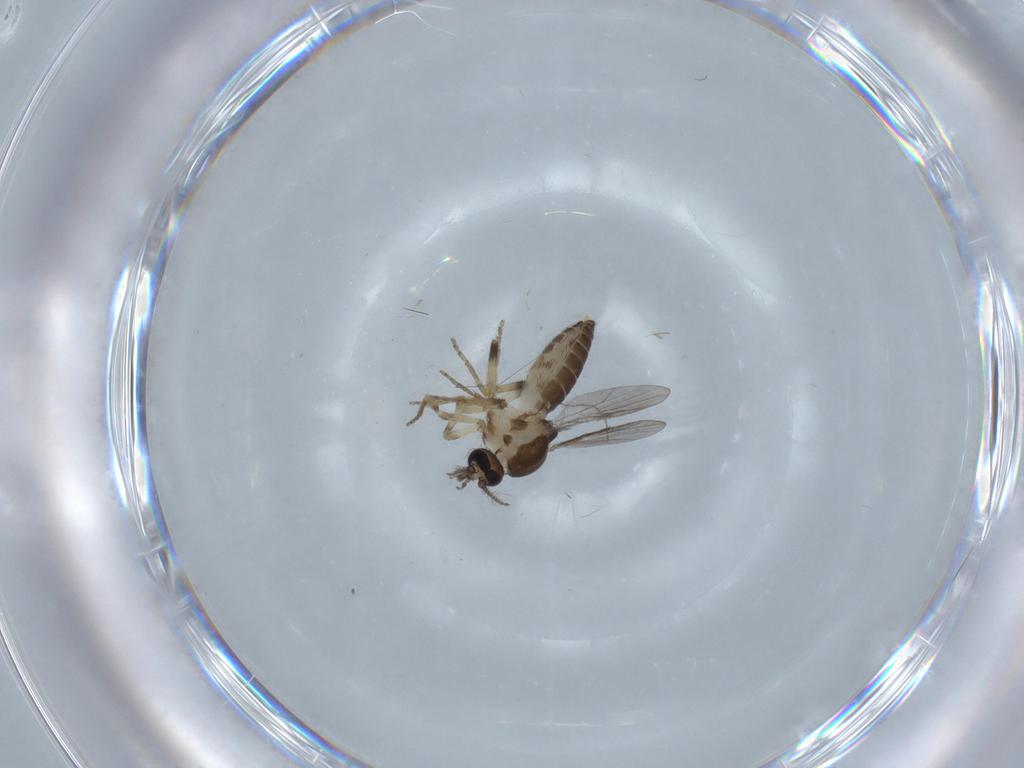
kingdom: Animalia
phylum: Arthropoda
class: Insecta
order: Diptera
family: Ceratopogonidae
